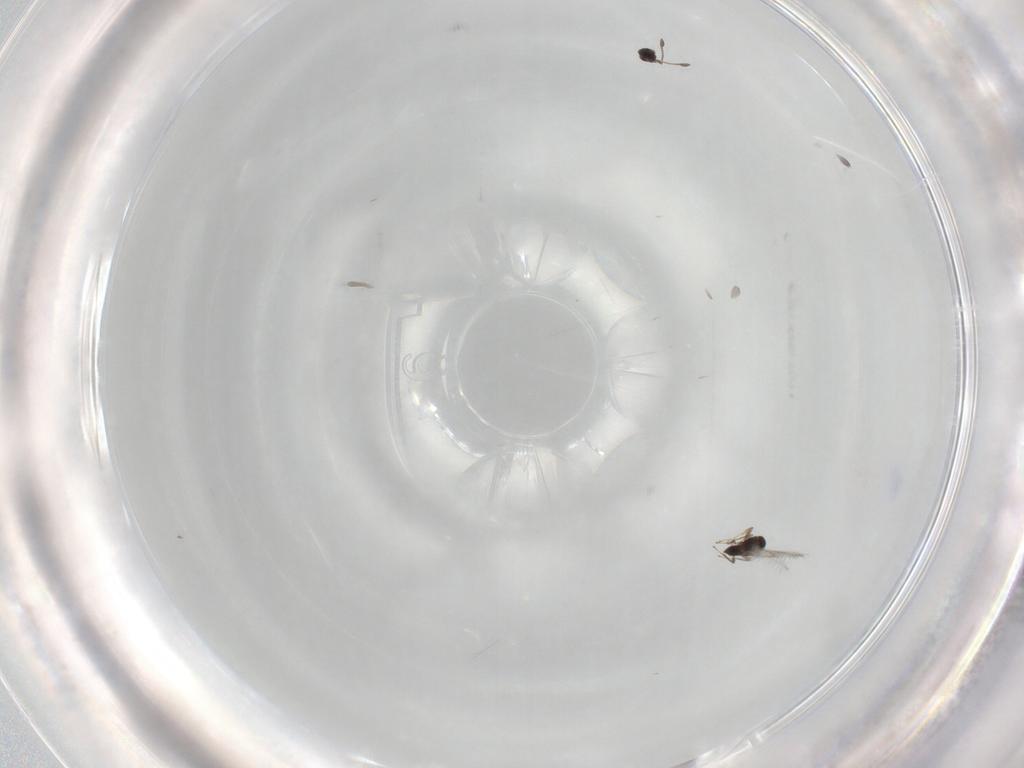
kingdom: Animalia
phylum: Arthropoda
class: Insecta
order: Hymenoptera
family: Mymaridae
